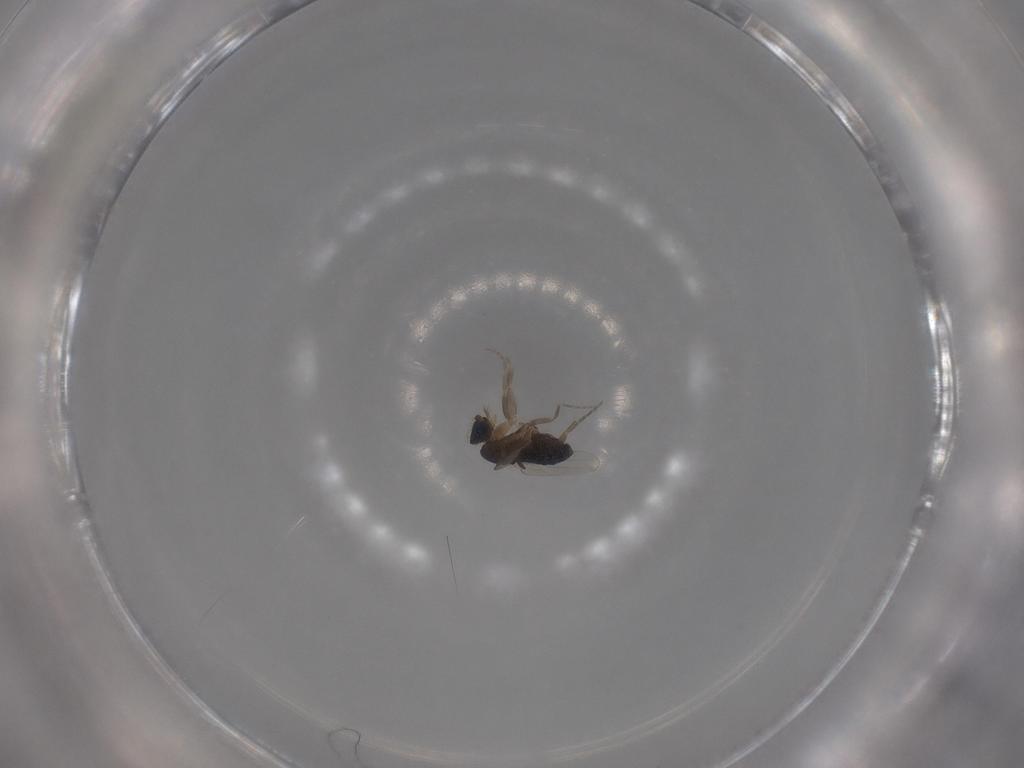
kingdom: Animalia
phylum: Arthropoda
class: Insecta
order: Diptera
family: Phoridae
